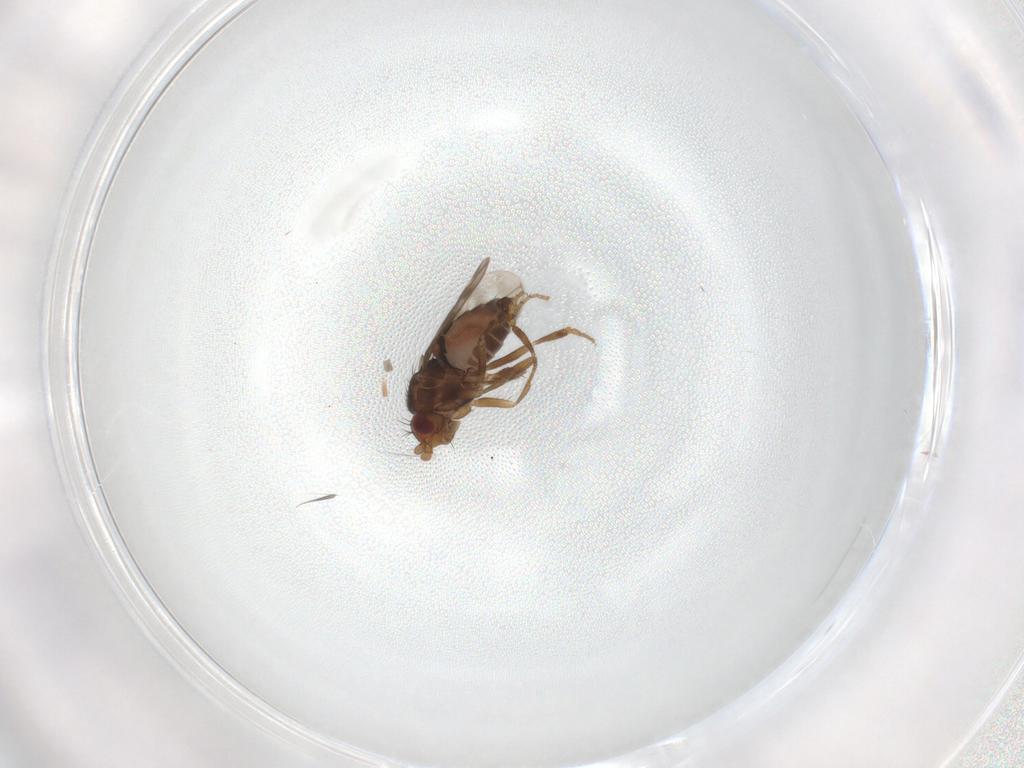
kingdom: Animalia
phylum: Arthropoda
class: Insecta
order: Diptera
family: Sphaeroceridae
